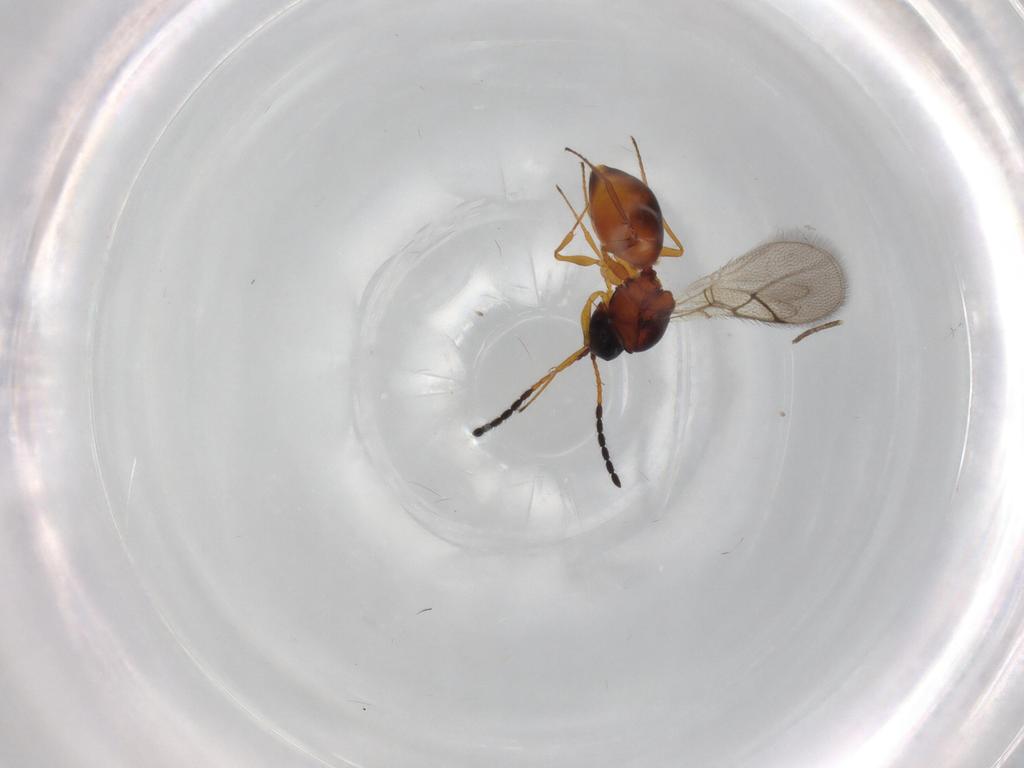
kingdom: Animalia
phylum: Arthropoda
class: Insecta
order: Hymenoptera
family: Figitidae
